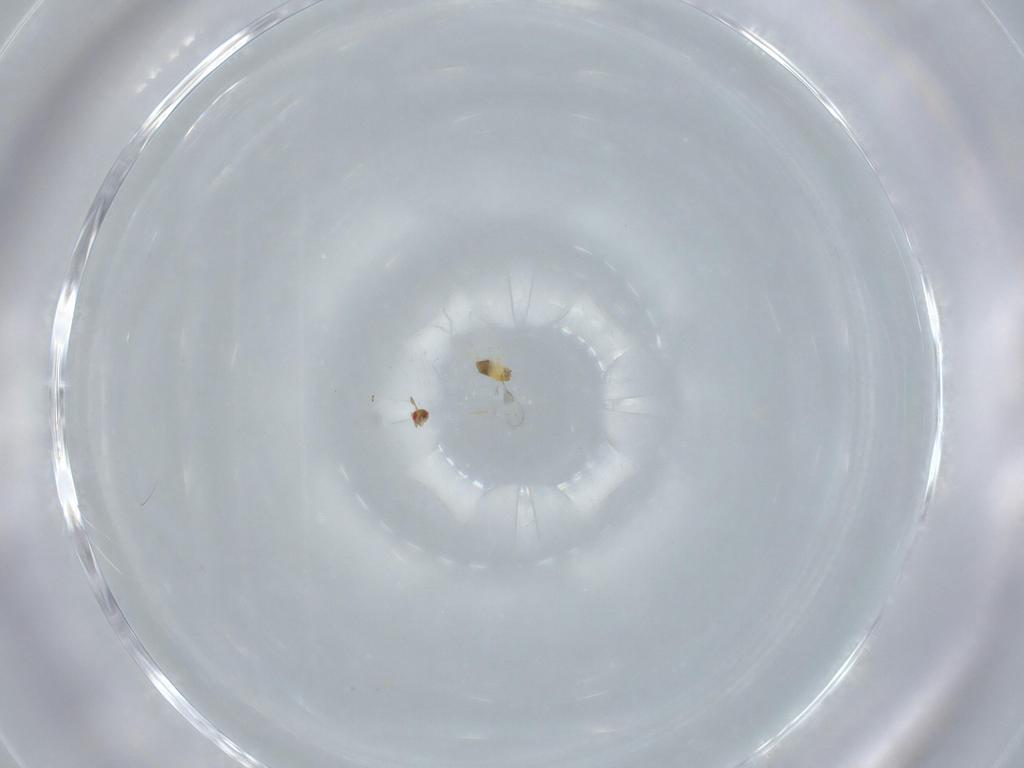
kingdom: Animalia
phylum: Arthropoda
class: Insecta
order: Hymenoptera
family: Trichogrammatidae
